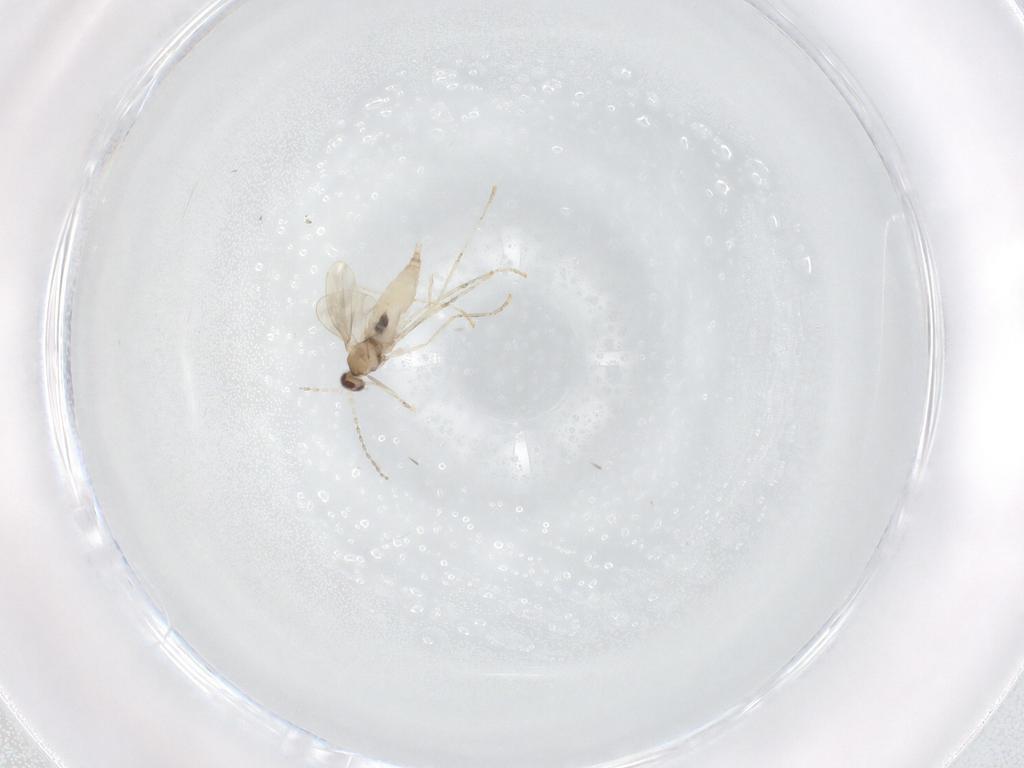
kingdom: Animalia
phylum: Arthropoda
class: Insecta
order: Diptera
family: Cecidomyiidae
